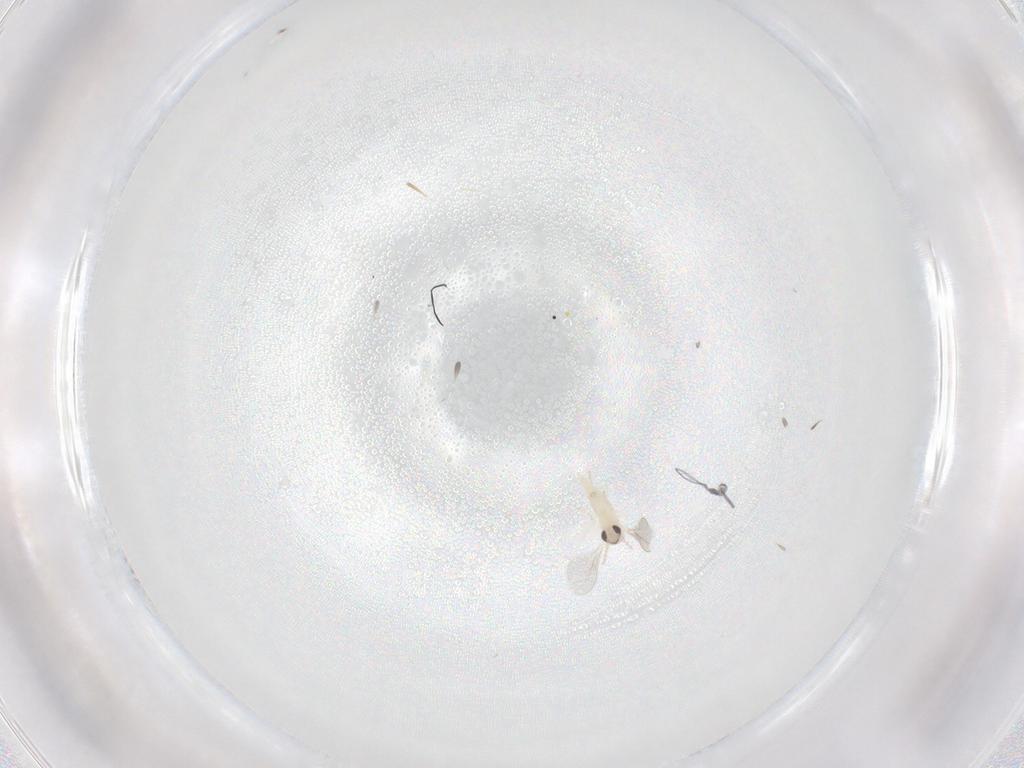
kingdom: Animalia
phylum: Arthropoda
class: Insecta
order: Diptera
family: Cecidomyiidae
